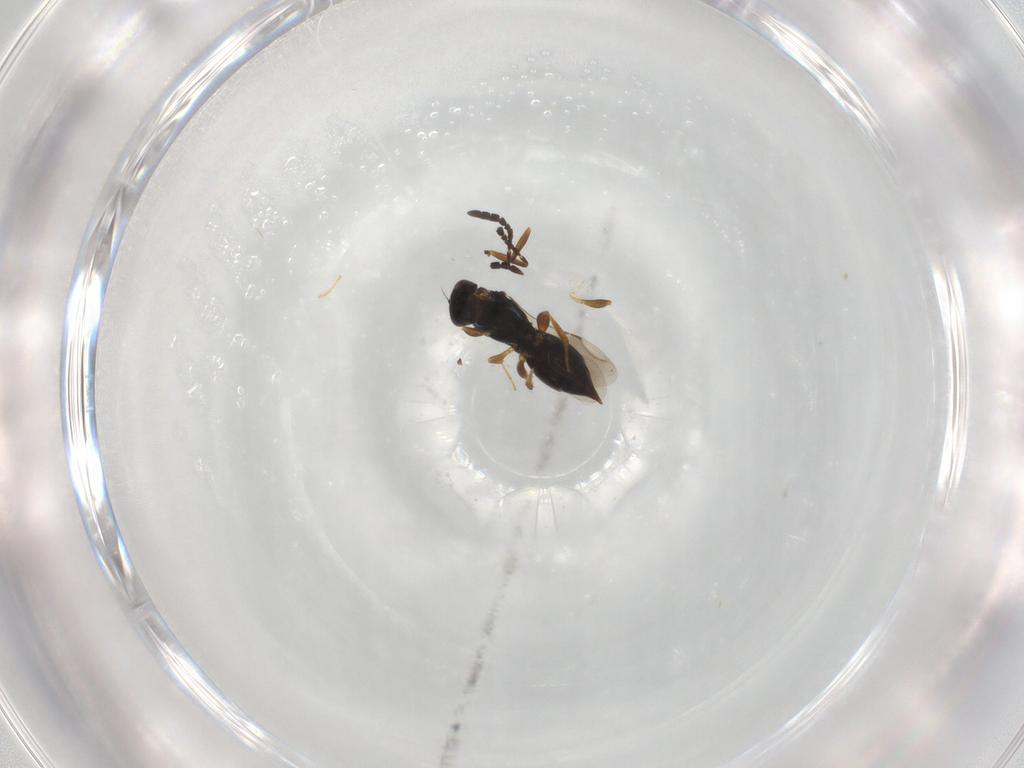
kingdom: Animalia
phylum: Arthropoda
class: Insecta
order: Hymenoptera
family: Ceraphronidae
